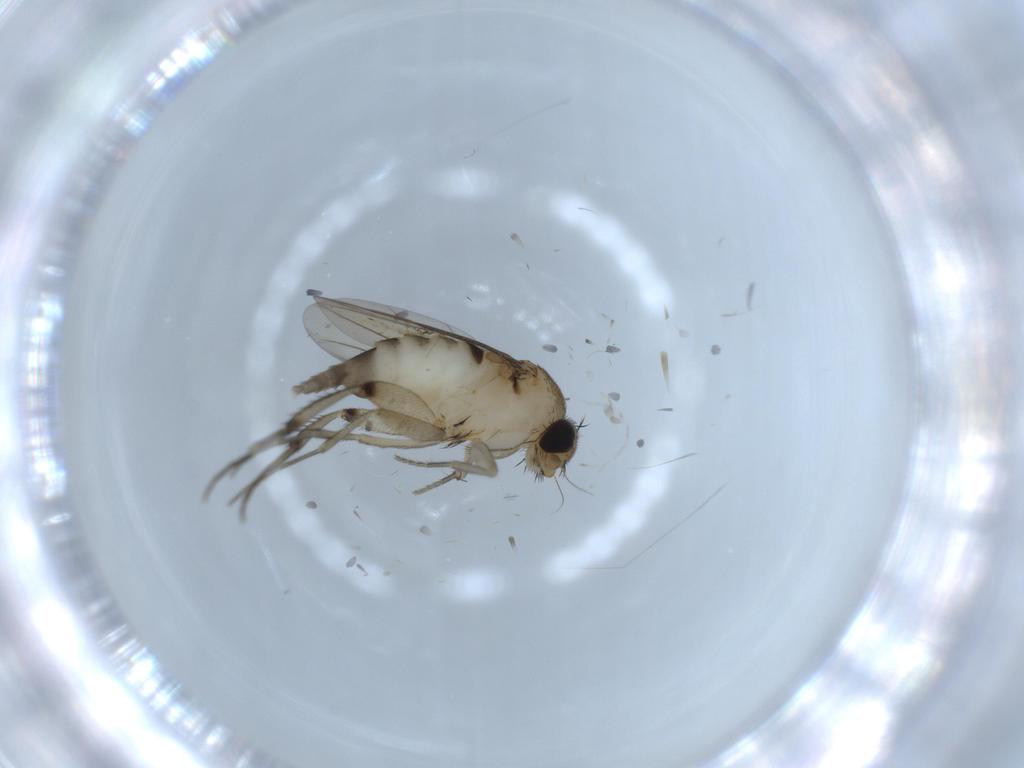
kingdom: Animalia
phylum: Arthropoda
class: Insecta
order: Diptera
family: Phoridae
